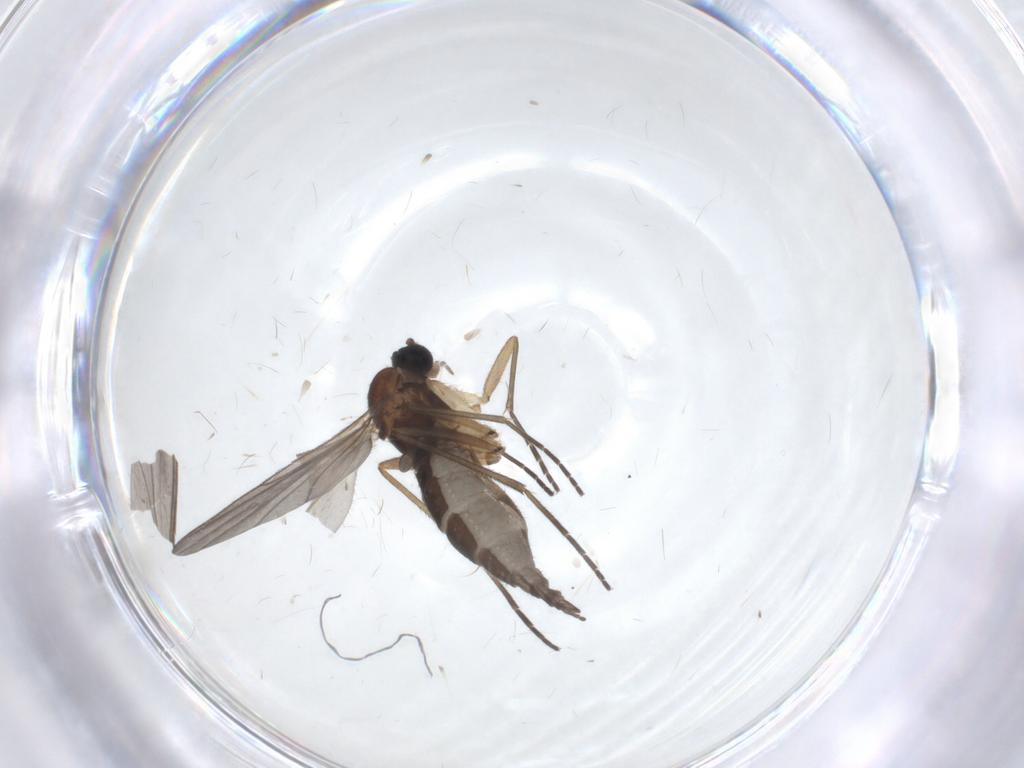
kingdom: Animalia
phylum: Arthropoda
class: Insecta
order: Diptera
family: Sciaridae
